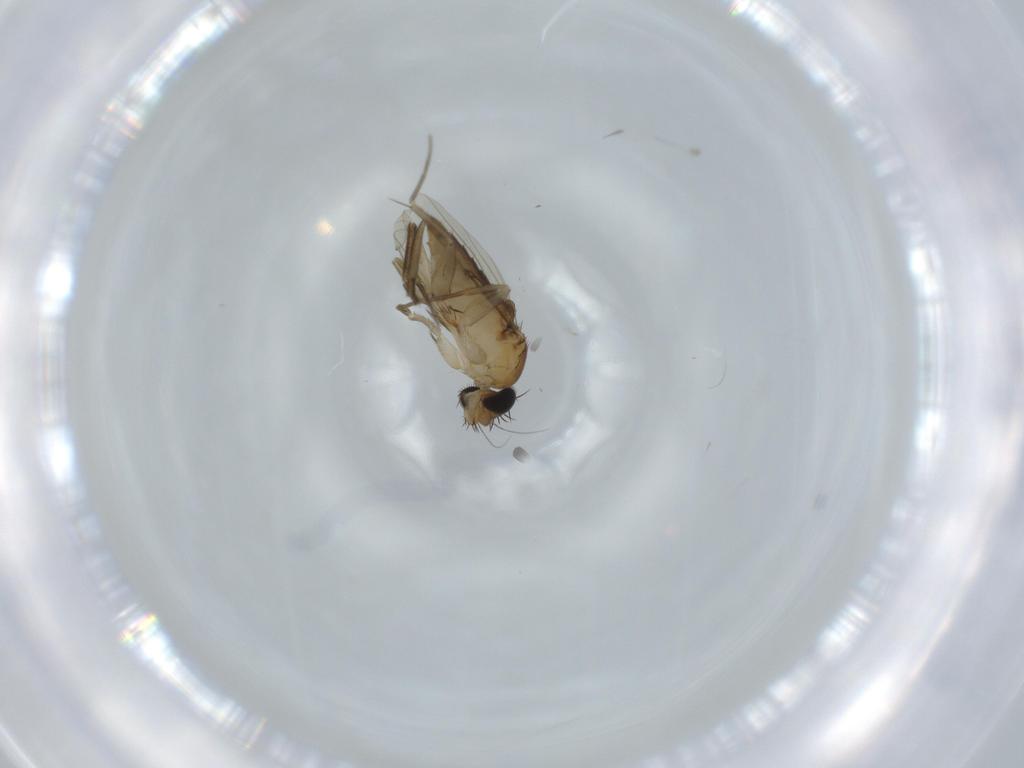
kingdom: Animalia
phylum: Arthropoda
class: Insecta
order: Diptera
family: Phoridae
